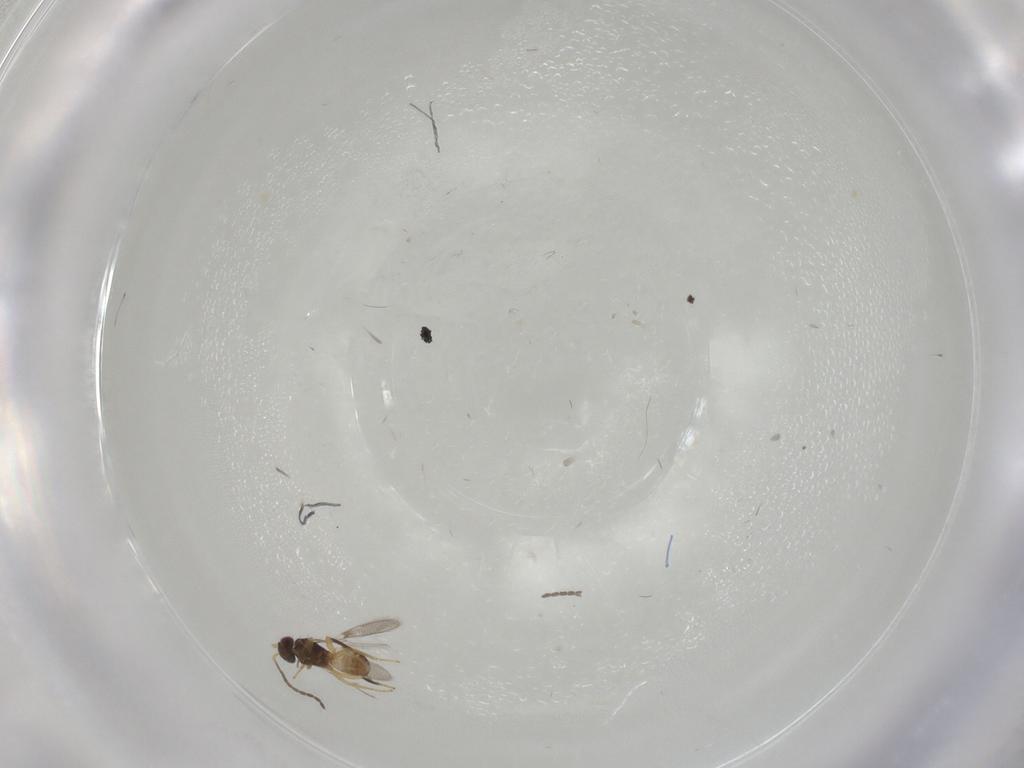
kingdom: Animalia
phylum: Arthropoda
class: Insecta
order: Hymenoptera
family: Mymaridae
